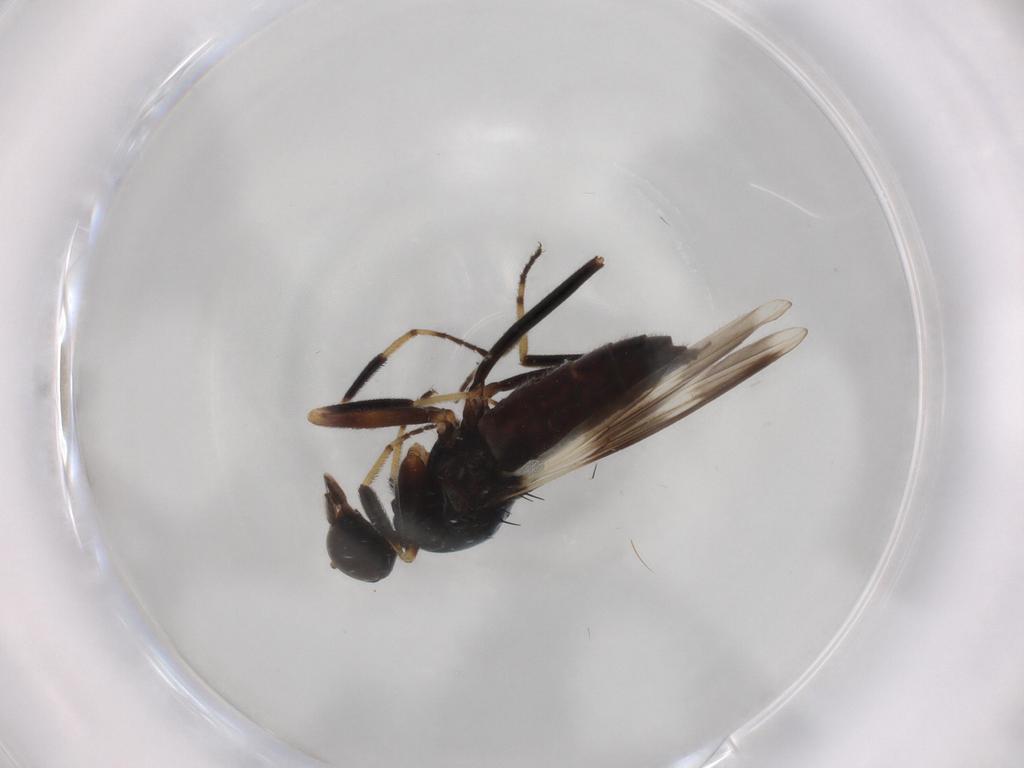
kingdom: Animalia
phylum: Arthropoda
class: Insecta
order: Diptera
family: Hybotidae
